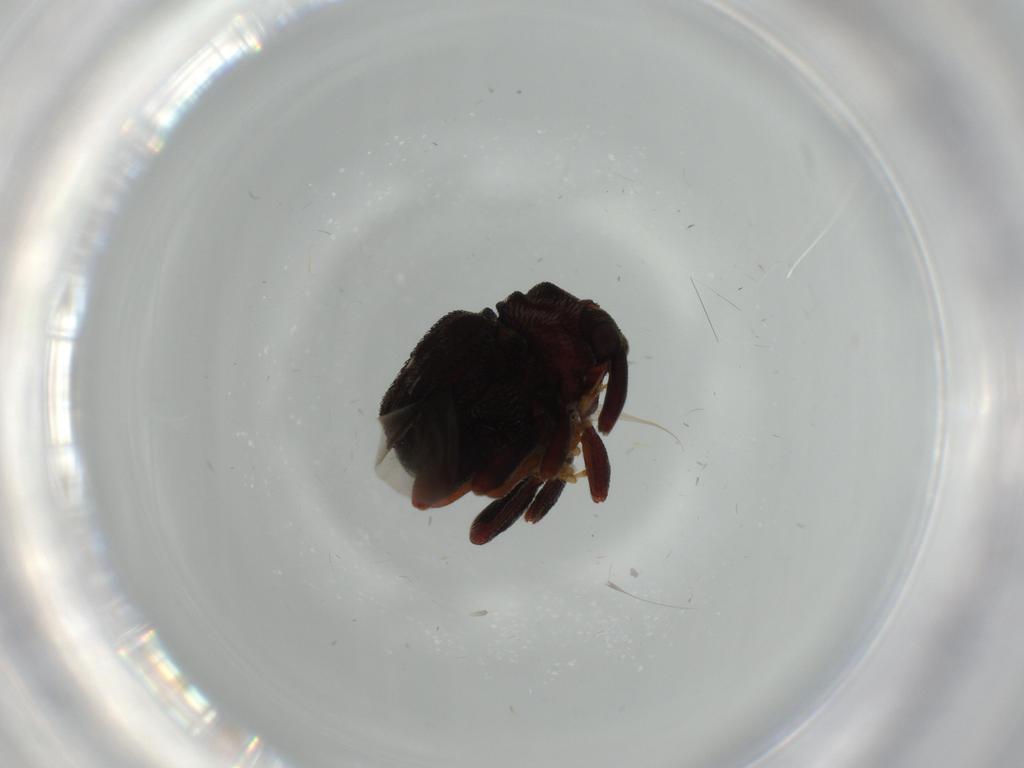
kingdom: Animalia
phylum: Arthropoda
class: Insecta
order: Coleoptera
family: Curculionidae
